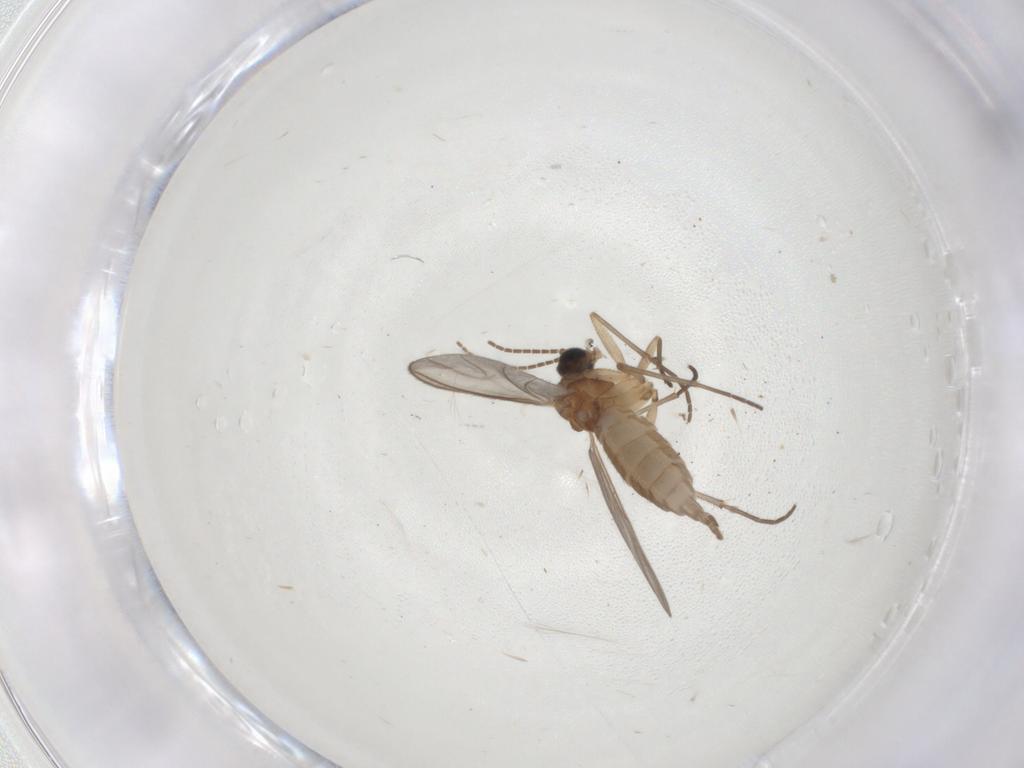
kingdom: Animalia
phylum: Arthropoda
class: Insecta
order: Diptera
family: Sciaridae
